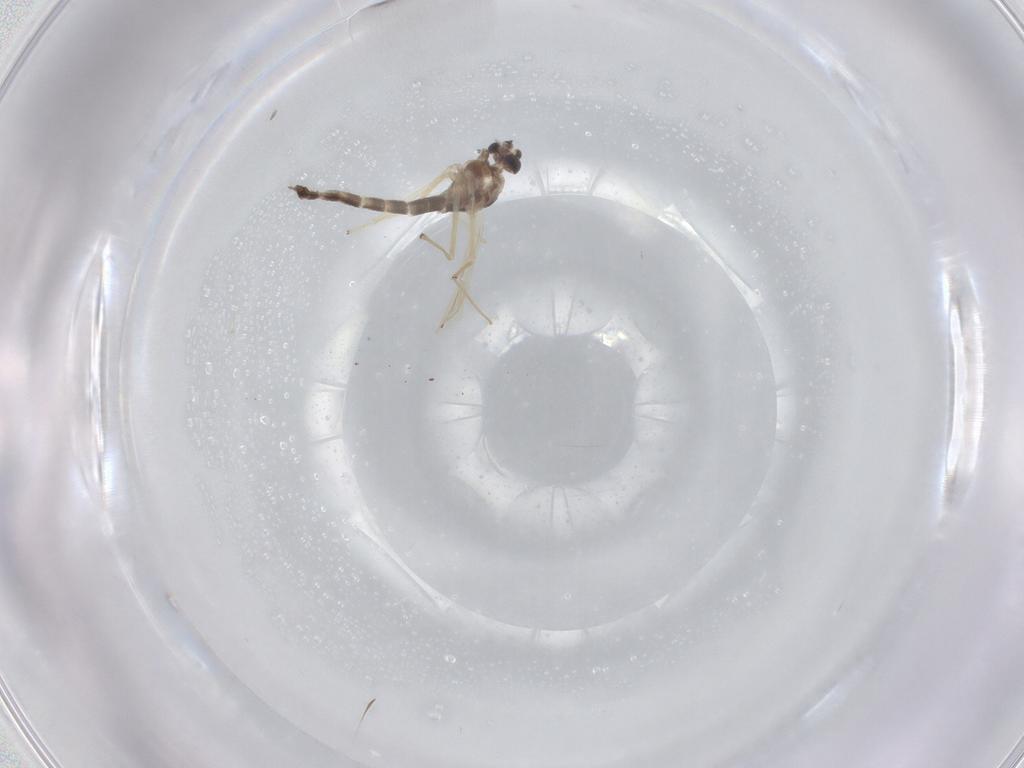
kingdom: Animalia
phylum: Arthropoda
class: Insecta
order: Diptera
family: Chironomidae
